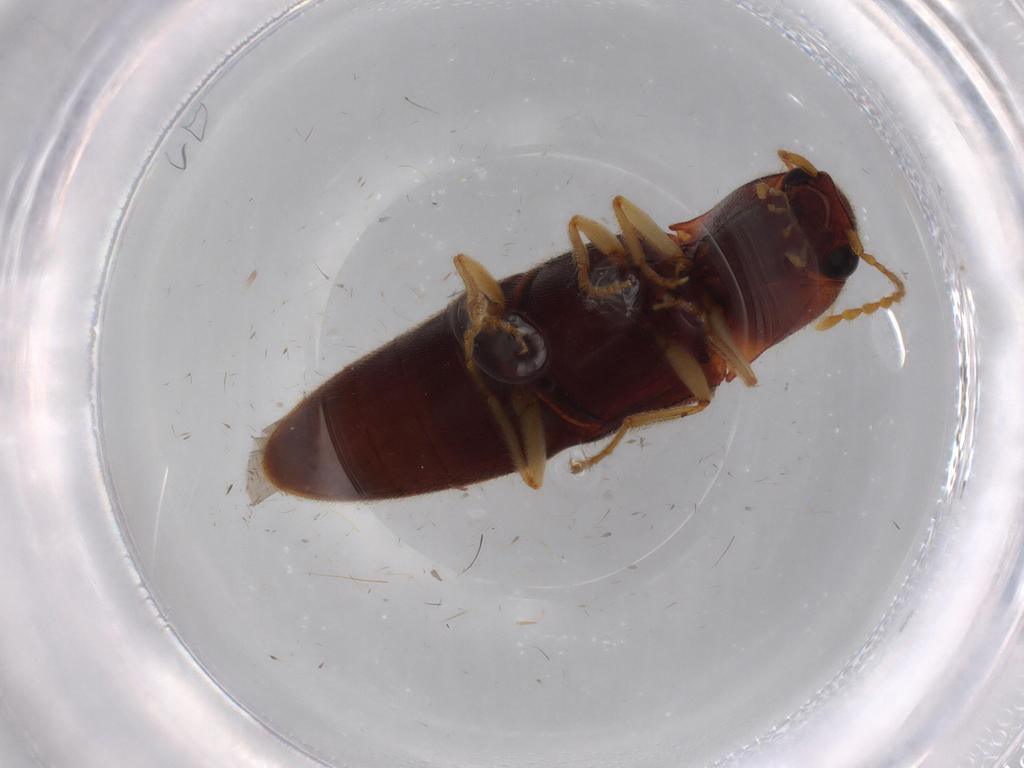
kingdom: Animalia
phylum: Arthropoda
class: Insecta
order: Coleoptera
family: Elateridae
